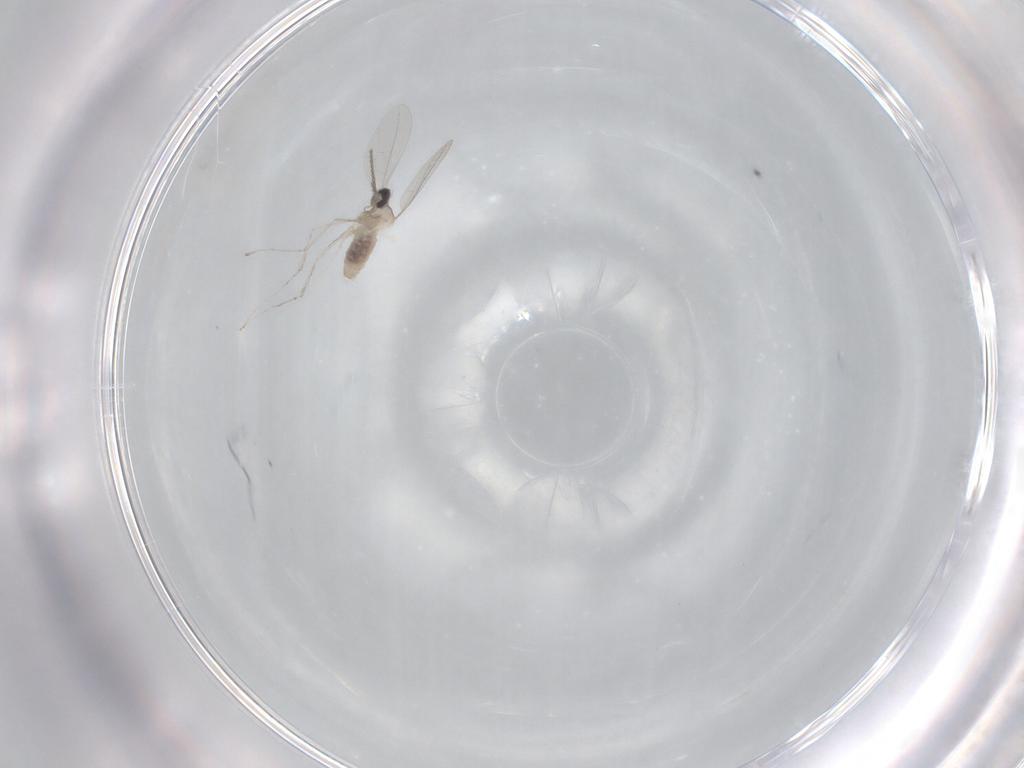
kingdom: Animalia
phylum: Arthropoda
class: Insecta
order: Diptera
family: Cecidomyiidae
